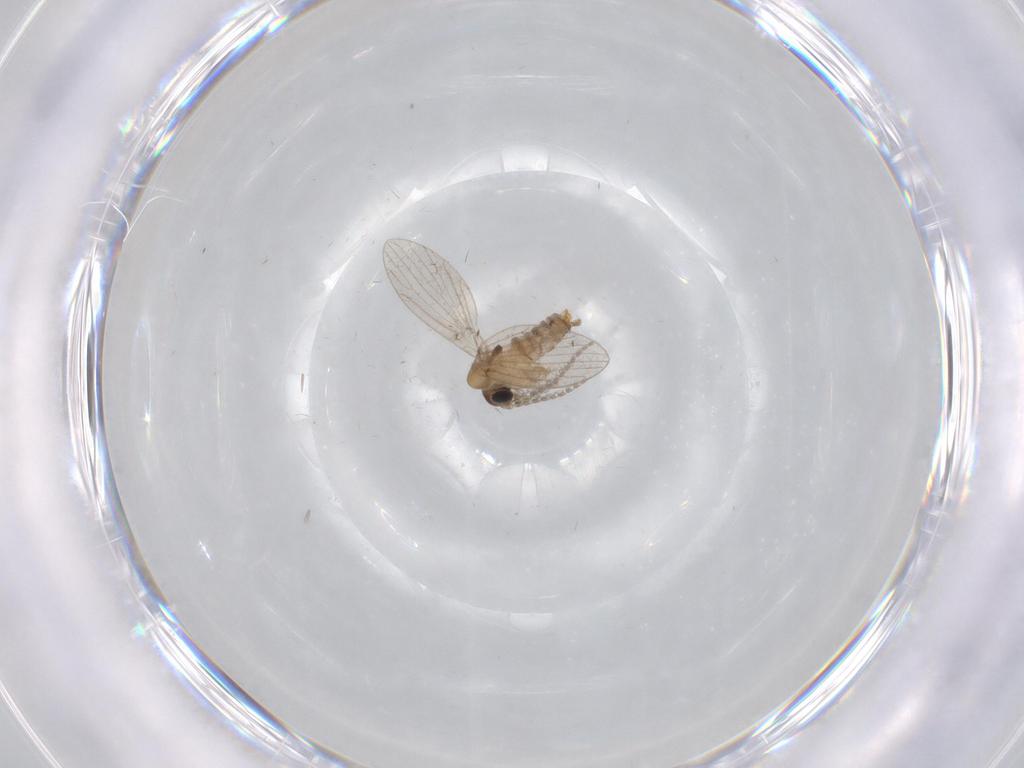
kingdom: Animalia
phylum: Arthropoda
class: Insecta
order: Diptera
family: Psychodidae
